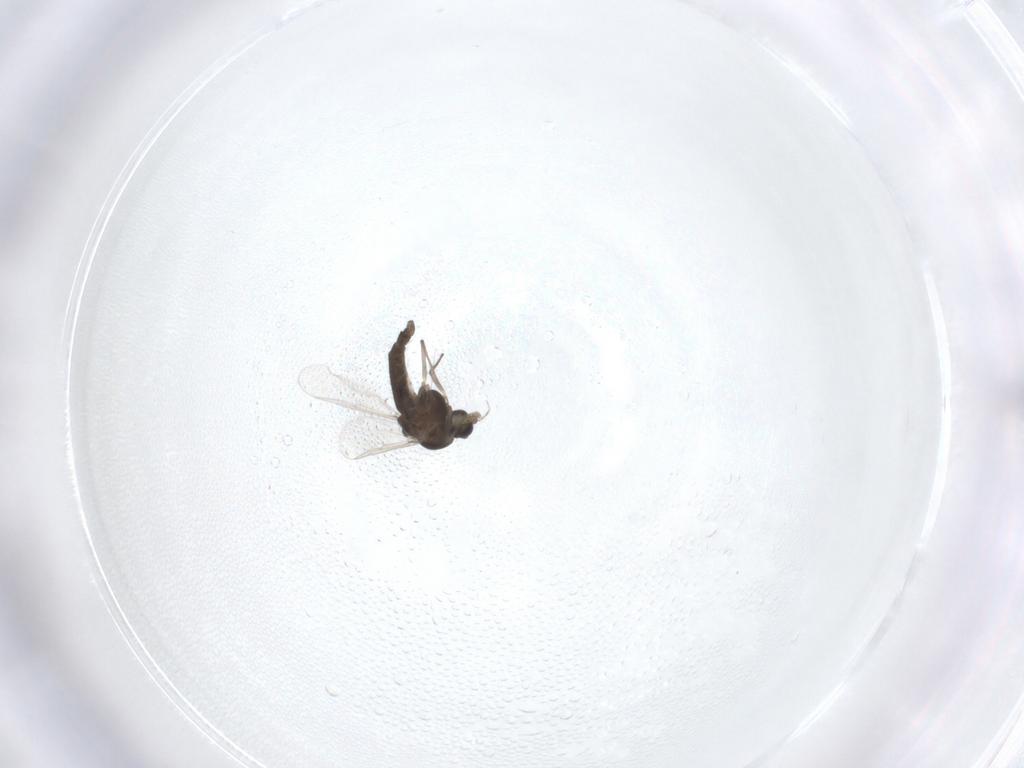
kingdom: Animalia
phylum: Arthropoda
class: Insecta
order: Diptera
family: Chironomidae
